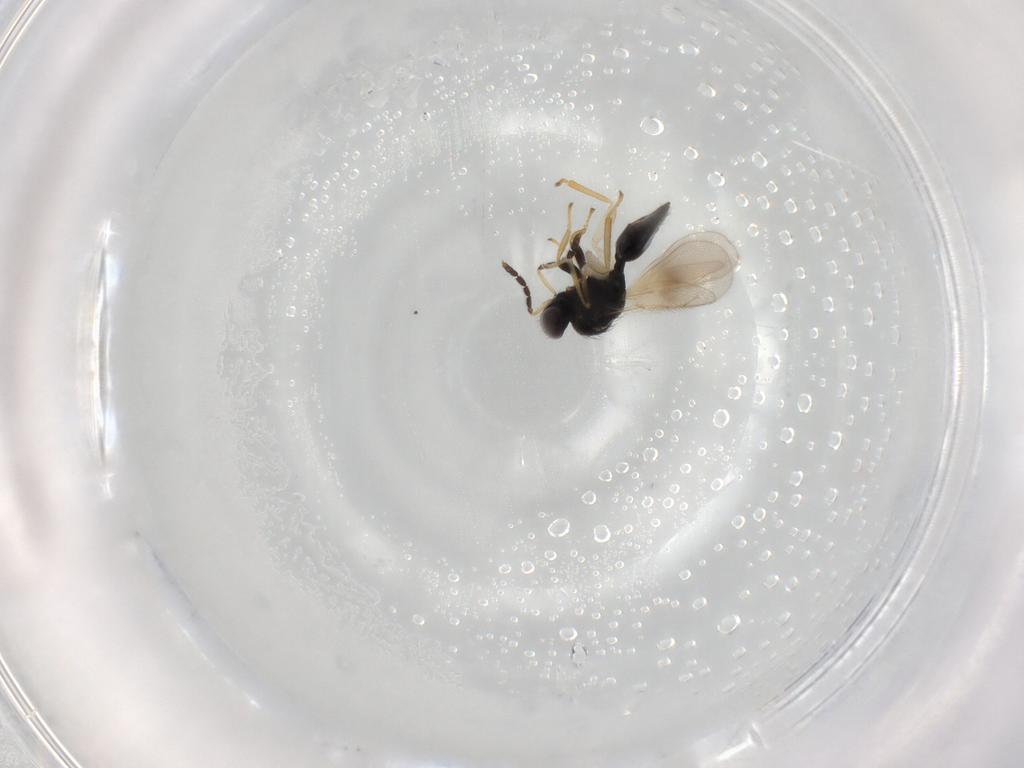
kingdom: Animalia
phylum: Arthropoda
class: Insecta
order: Hymenoptera
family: Eulophidae
